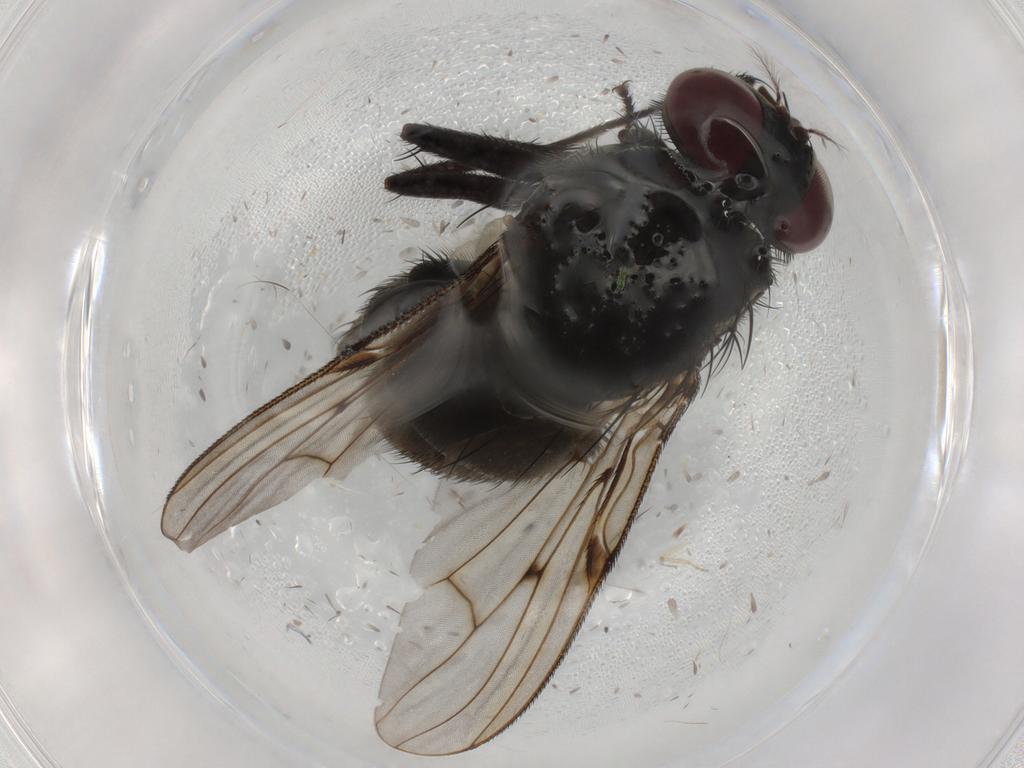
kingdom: Animalia
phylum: Arthropoda
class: Insecta
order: Diptera
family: Muscidae
